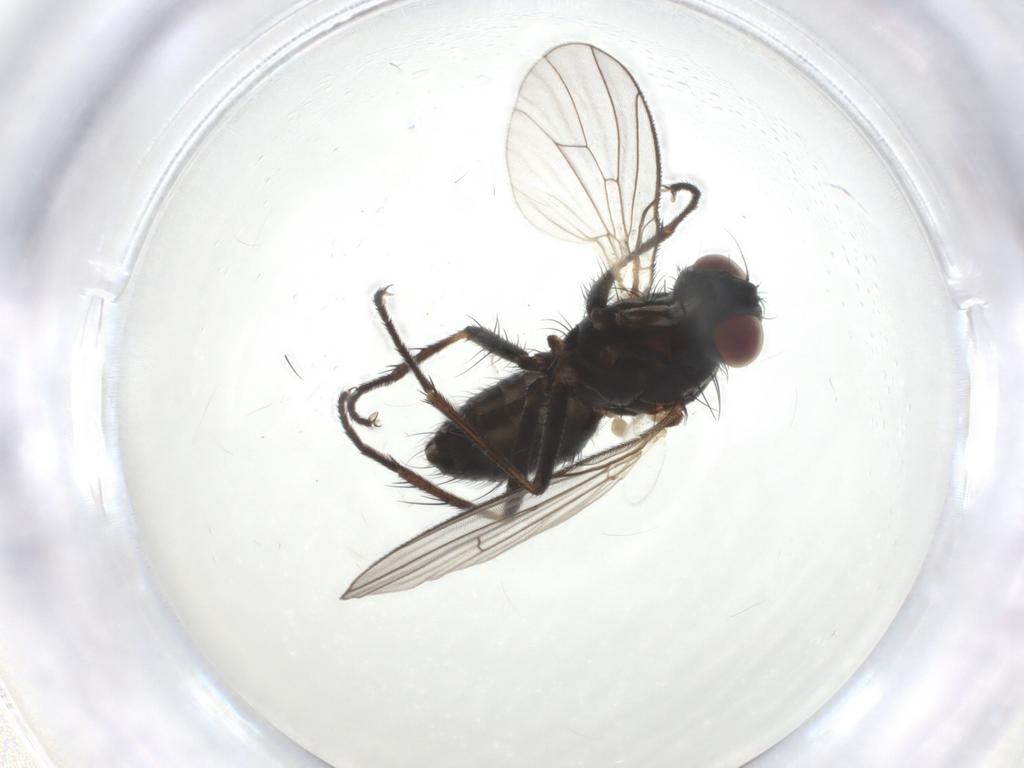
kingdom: Animalia
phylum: Arthropoda
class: Insecta
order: Diptera
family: Muscidae
